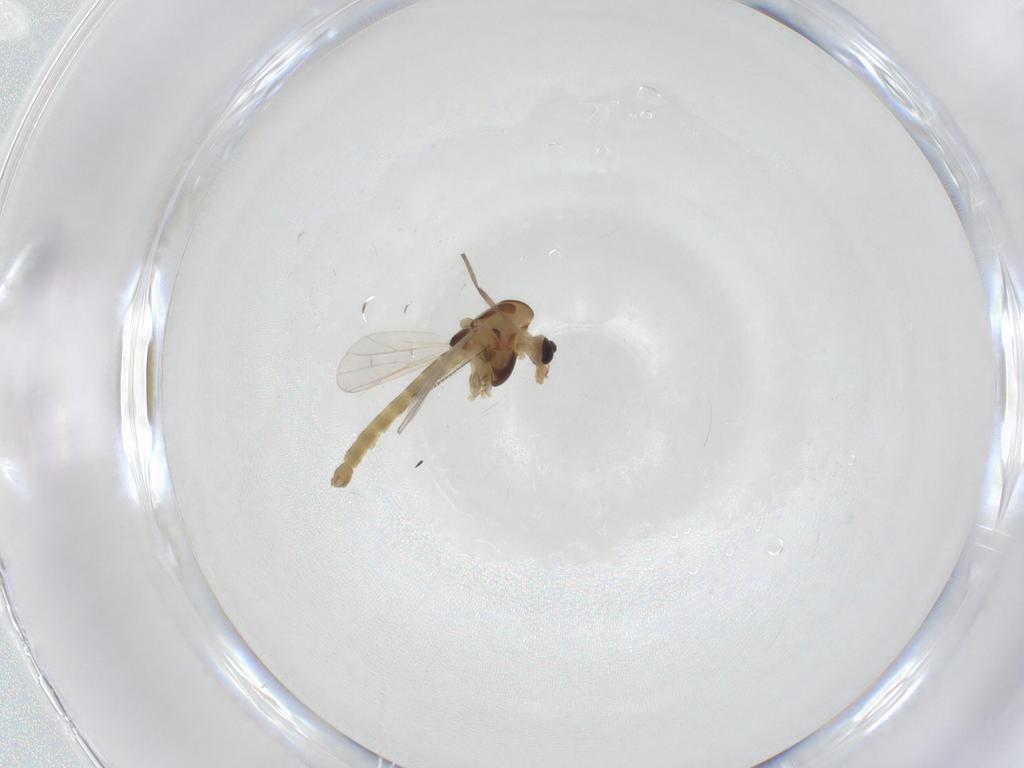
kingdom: Animalia
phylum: Arthropoda
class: Insecta
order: Diptera
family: Chironomidae
